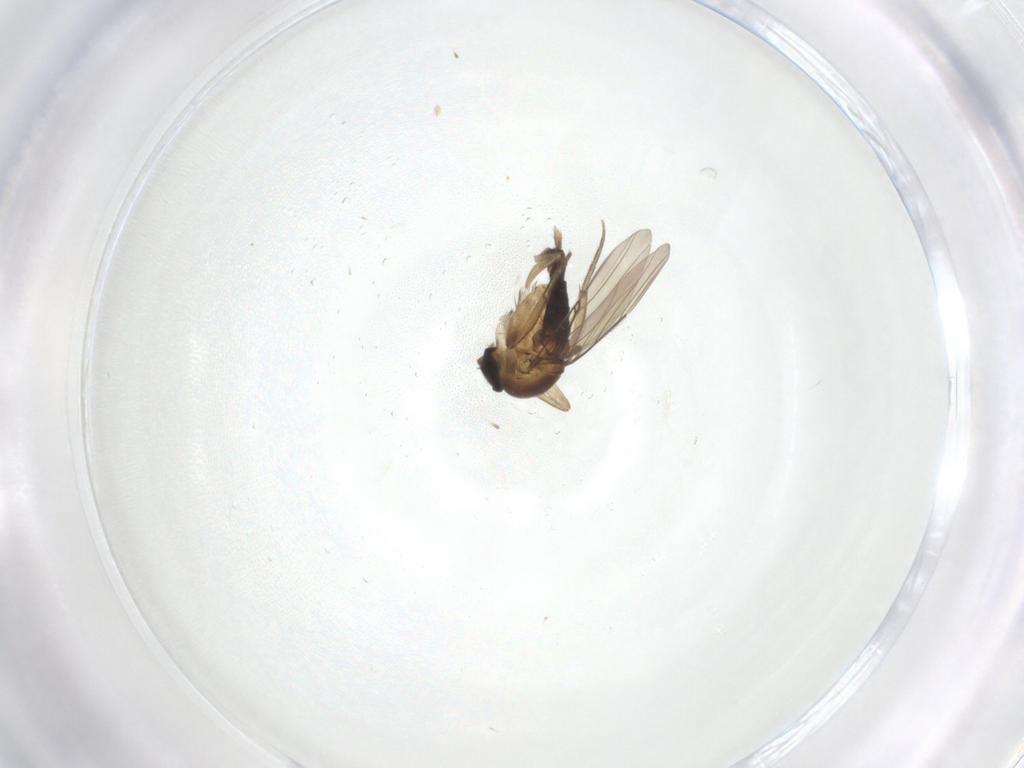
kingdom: Animalia
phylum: Arthropoda
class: Insecta
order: Diptera
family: Phoridae
